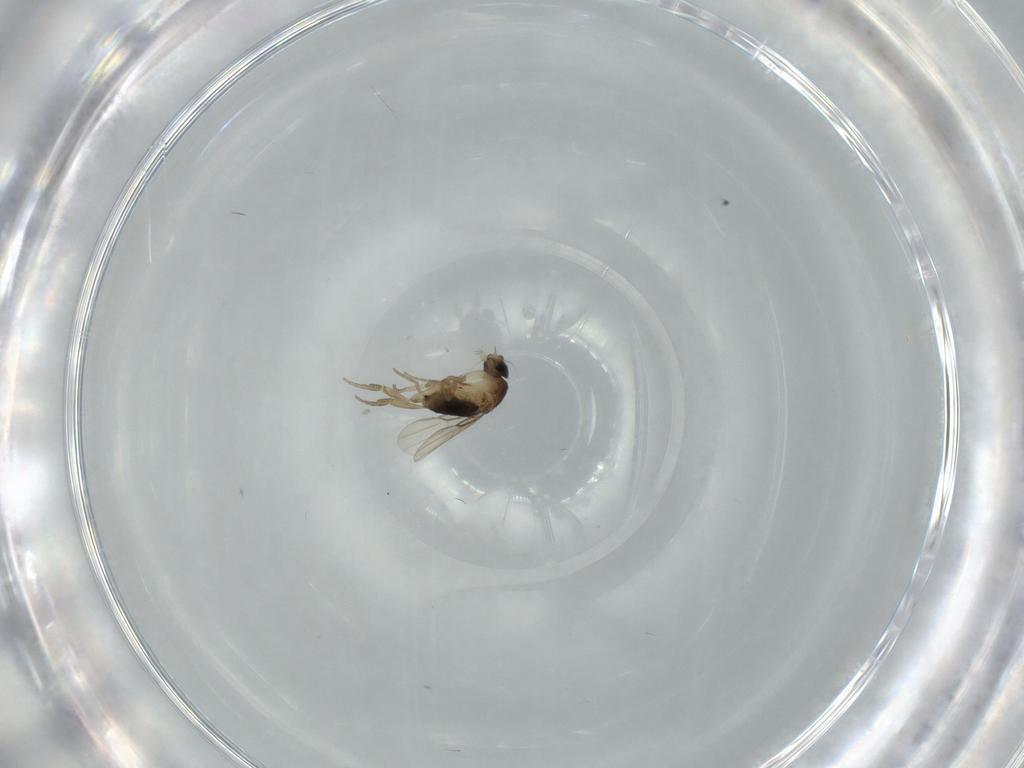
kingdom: Animalia
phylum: Arthropoda
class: Insecta
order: Diptera
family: Phoridae
